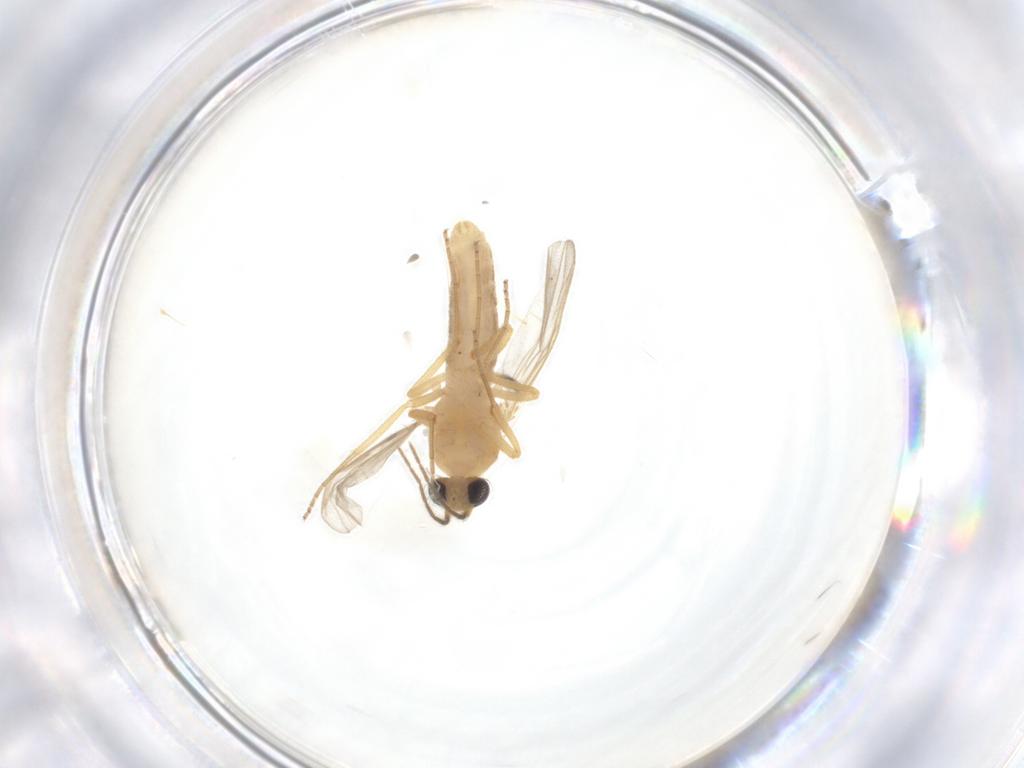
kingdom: Animalia
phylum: Arthropoda
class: Insecta
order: Diptera
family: Ceratopogonidae
